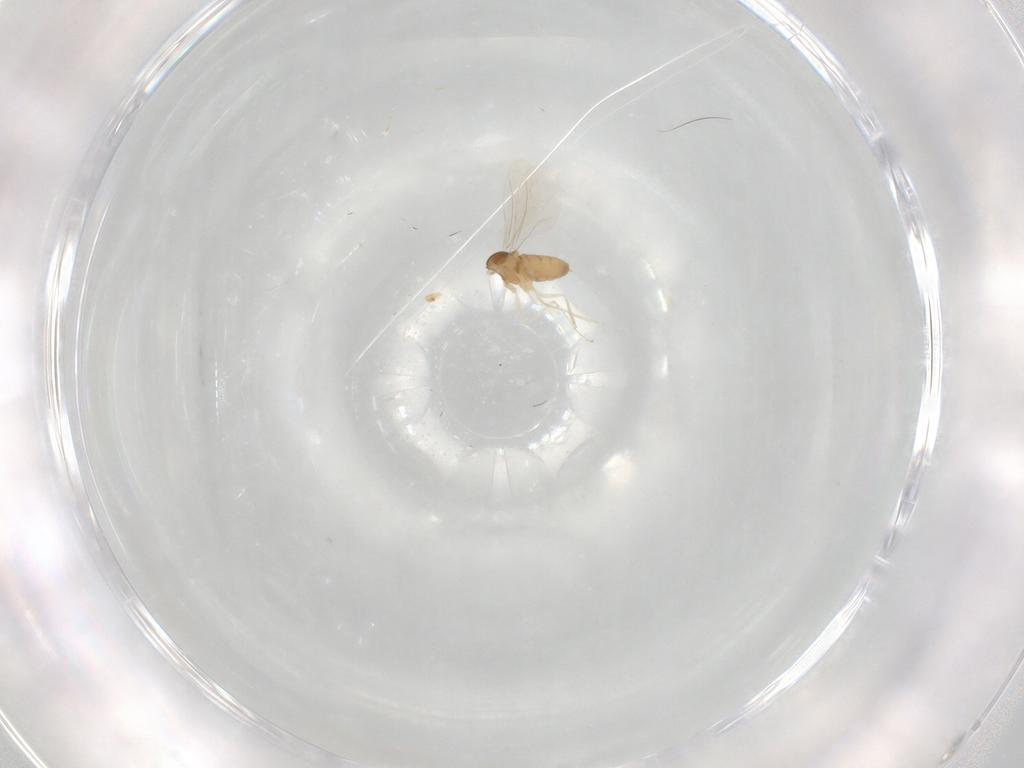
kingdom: Animalia
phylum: Arthropoda
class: Insecta
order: Diptera
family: Cecidomyiidae
